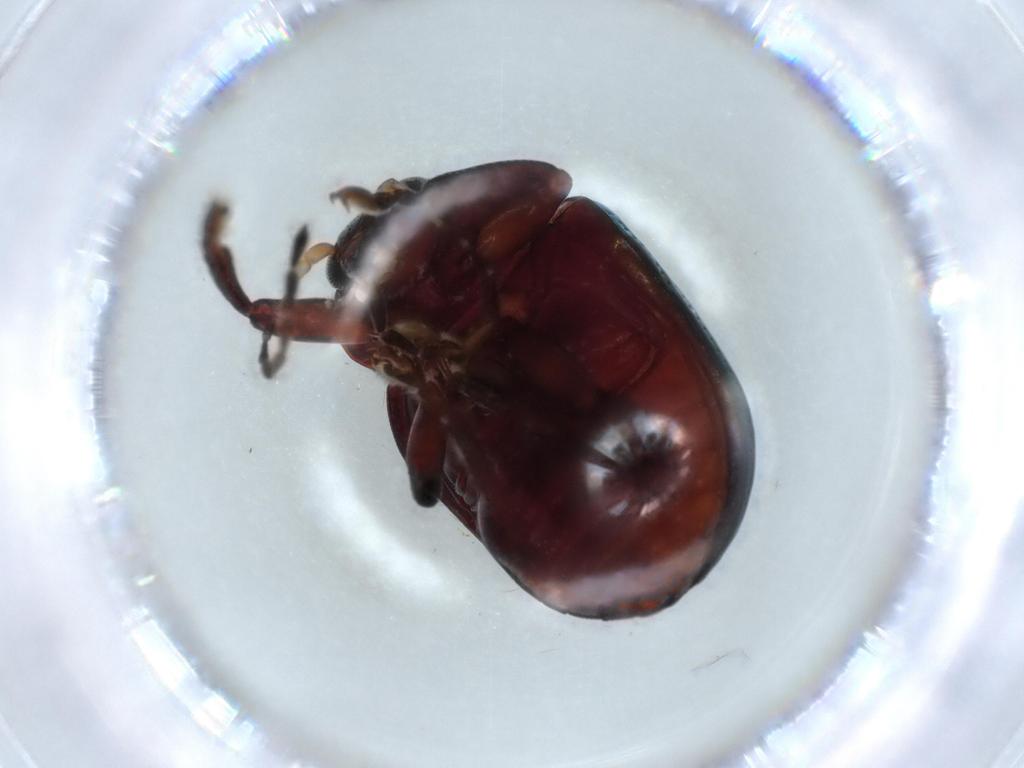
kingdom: Animalia
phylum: Arthropoda
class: Insecta
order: Coleoptera
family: Chrysomelidae
